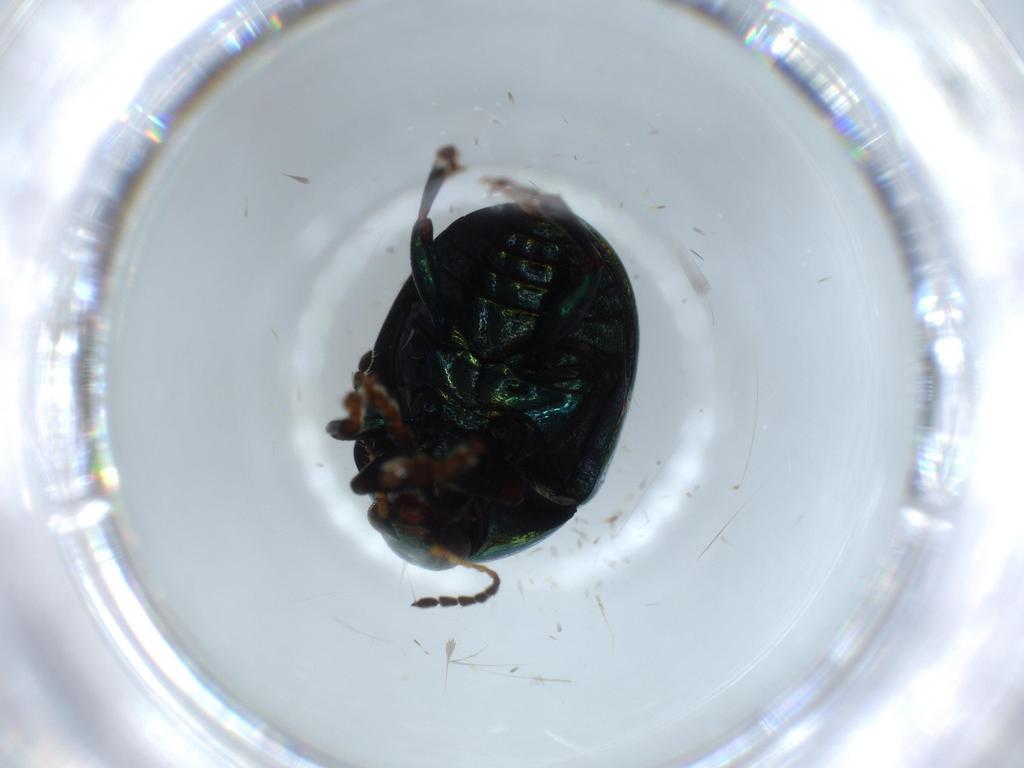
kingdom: Animalia
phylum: Arthropoda
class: Insecta
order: Coleoptera
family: Chrysomelidae
